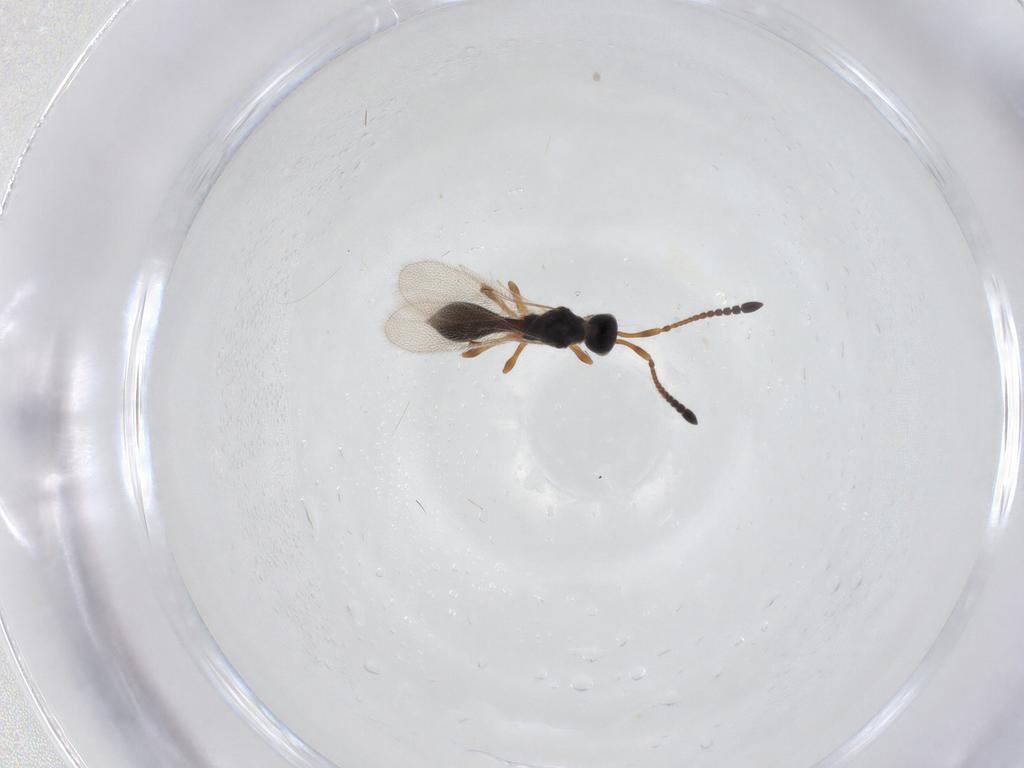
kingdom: Animalia
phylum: Arthropoda
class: Insecta
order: Hymenoptera
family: Diapriidae
